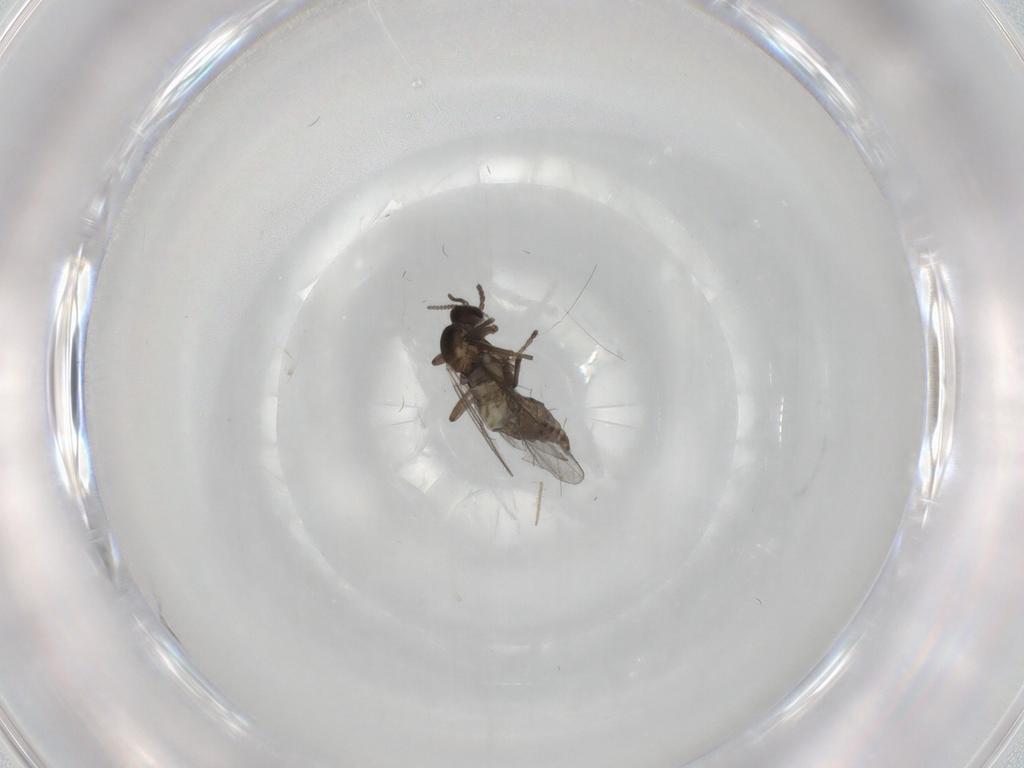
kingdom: Animalia
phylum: Arthropoda
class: Insecta
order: Diptera
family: Cecidomyiidae
